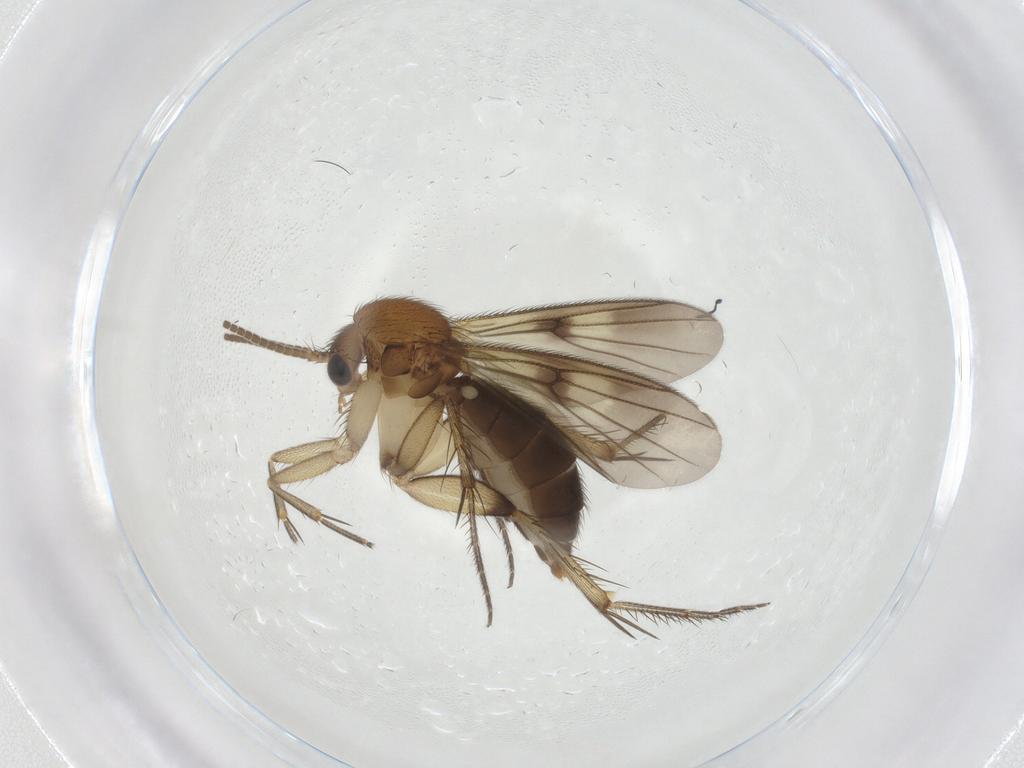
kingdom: Animalia
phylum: Arthropoda
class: Insecta
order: Diptera
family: Mycetophilidae
